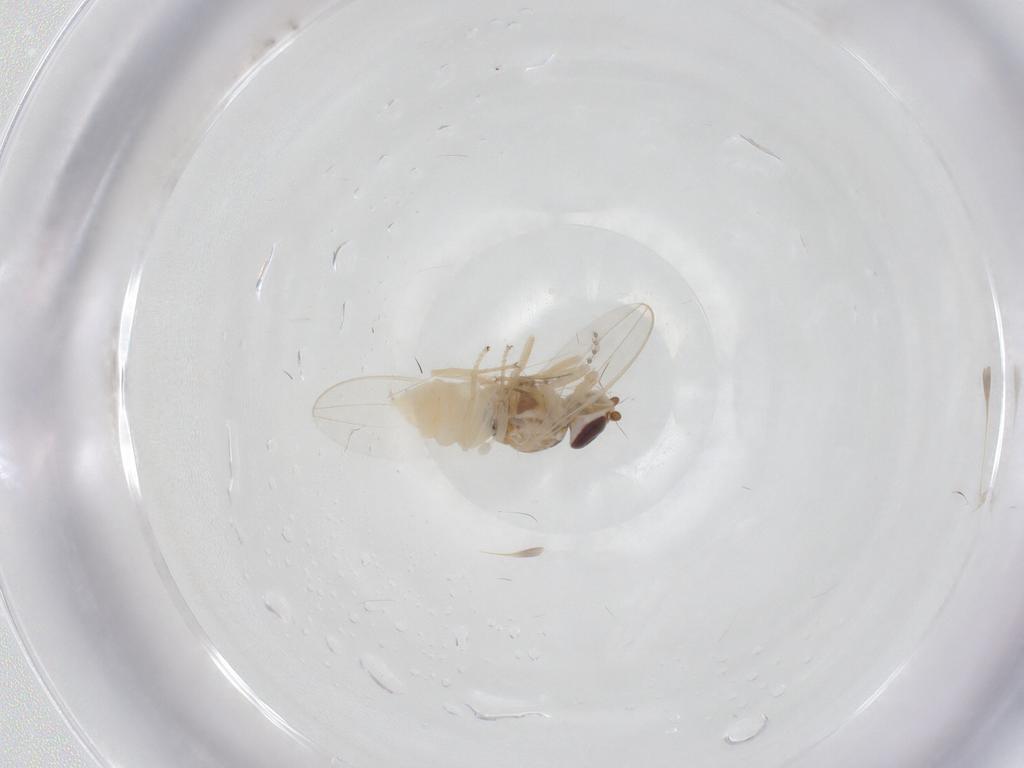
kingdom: Animalia
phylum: Arthropoda
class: Insecta
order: Diptera
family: Chloropidae
